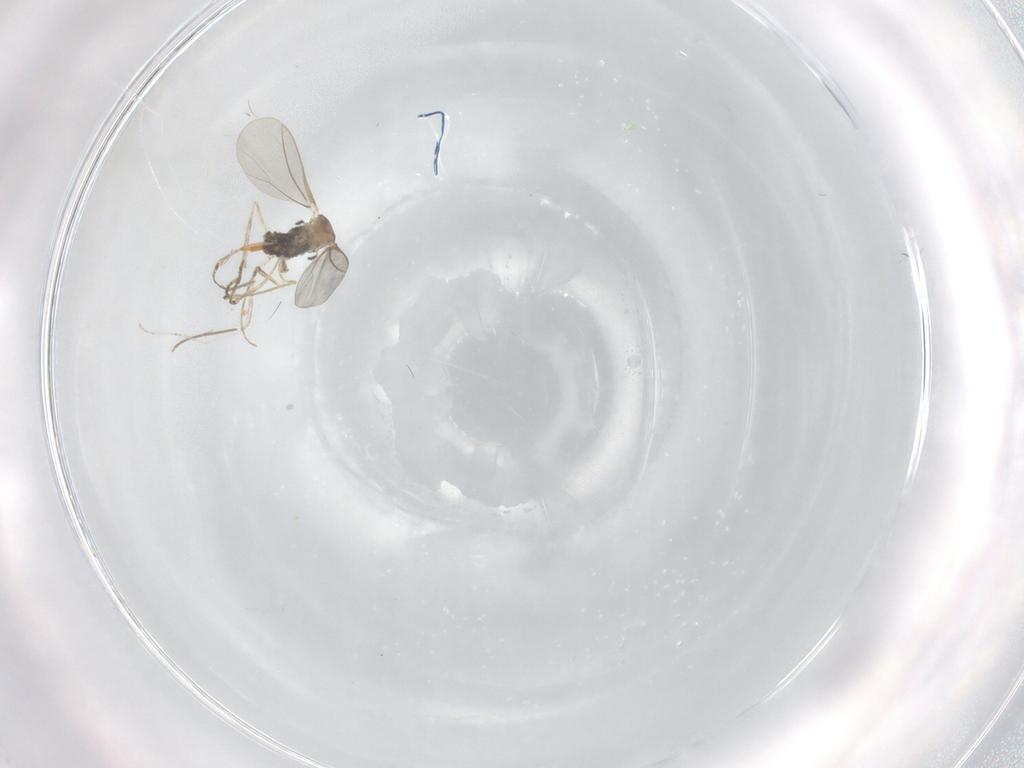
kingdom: Animalia
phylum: Arthropoda
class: Insecta
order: Diptera
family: Cecidomyiidae
